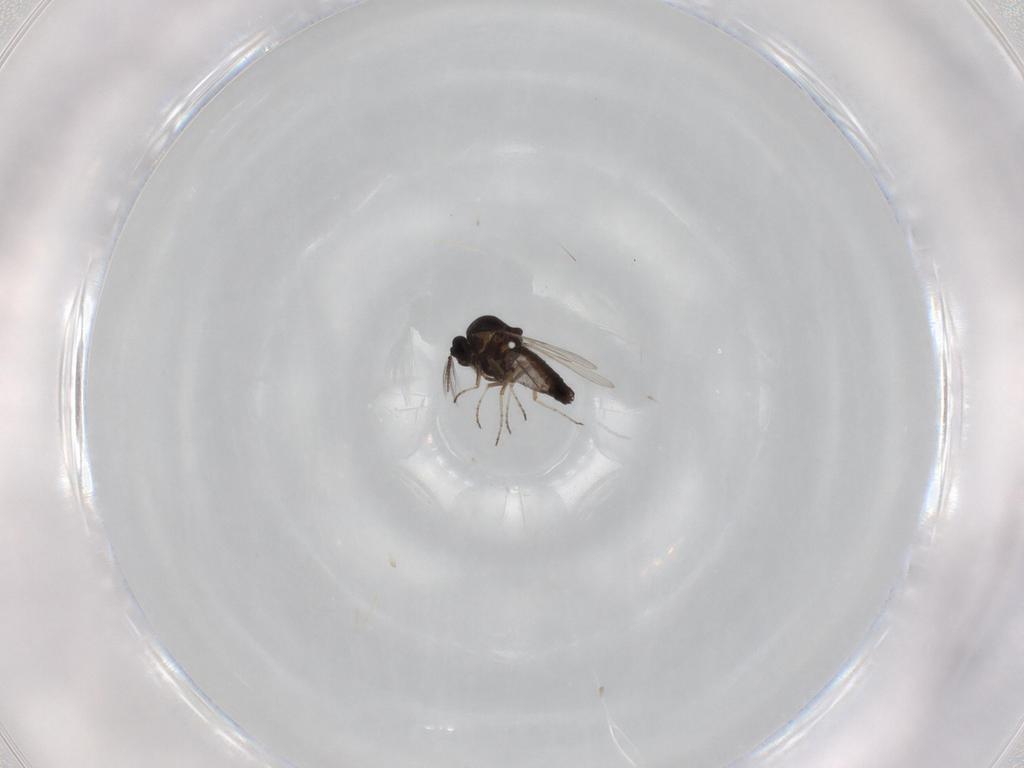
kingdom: Animalia
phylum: Arthropoda
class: Insecta
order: Diptera
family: Ceratopogonidae
